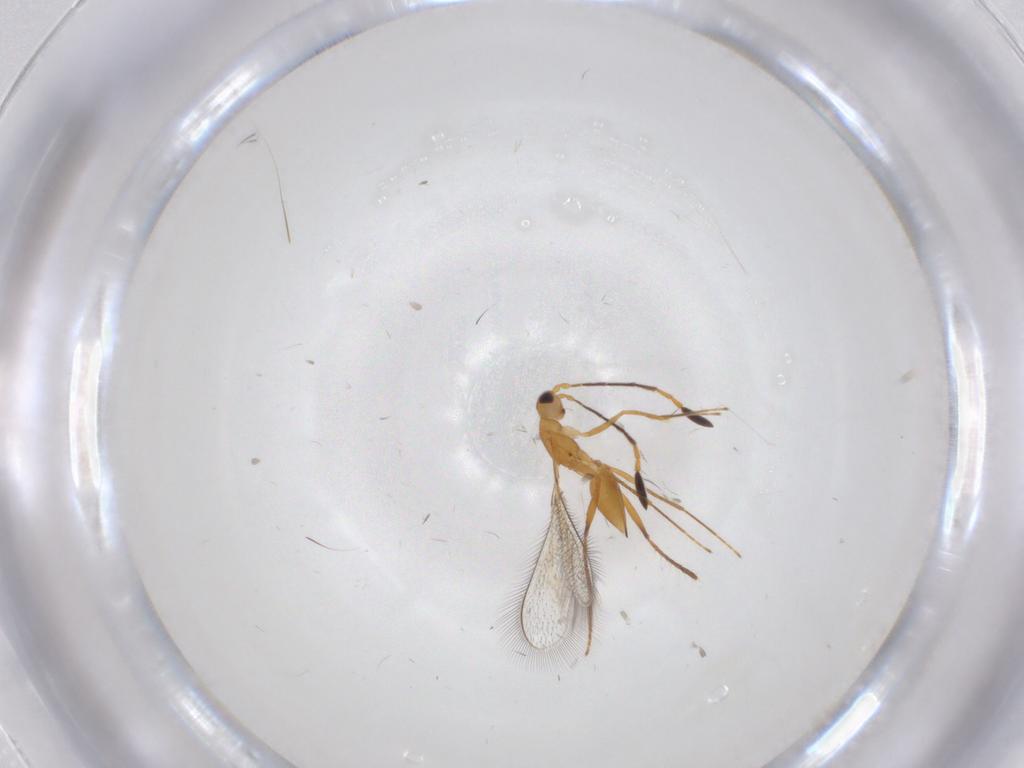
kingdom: Animalia
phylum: Arthropoda
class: Insecta
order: Hymenoptera
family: Mymaridae
